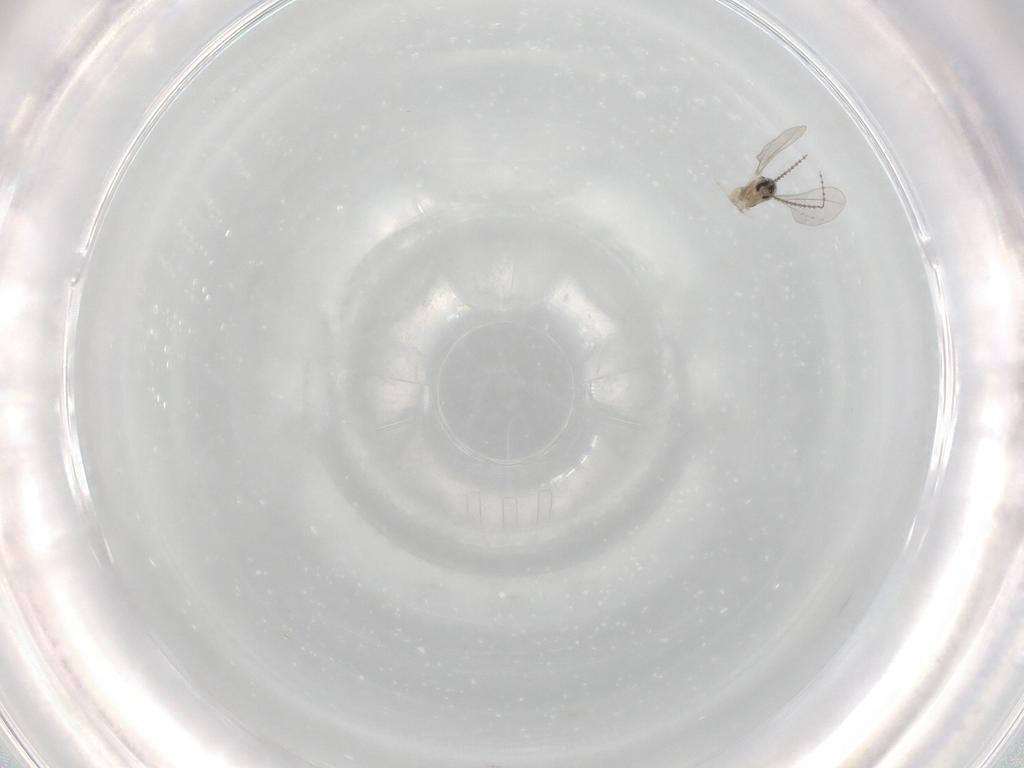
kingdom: Animalia
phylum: Arthropoda
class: Insecta
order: Diptera
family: Cecidomyiidae
